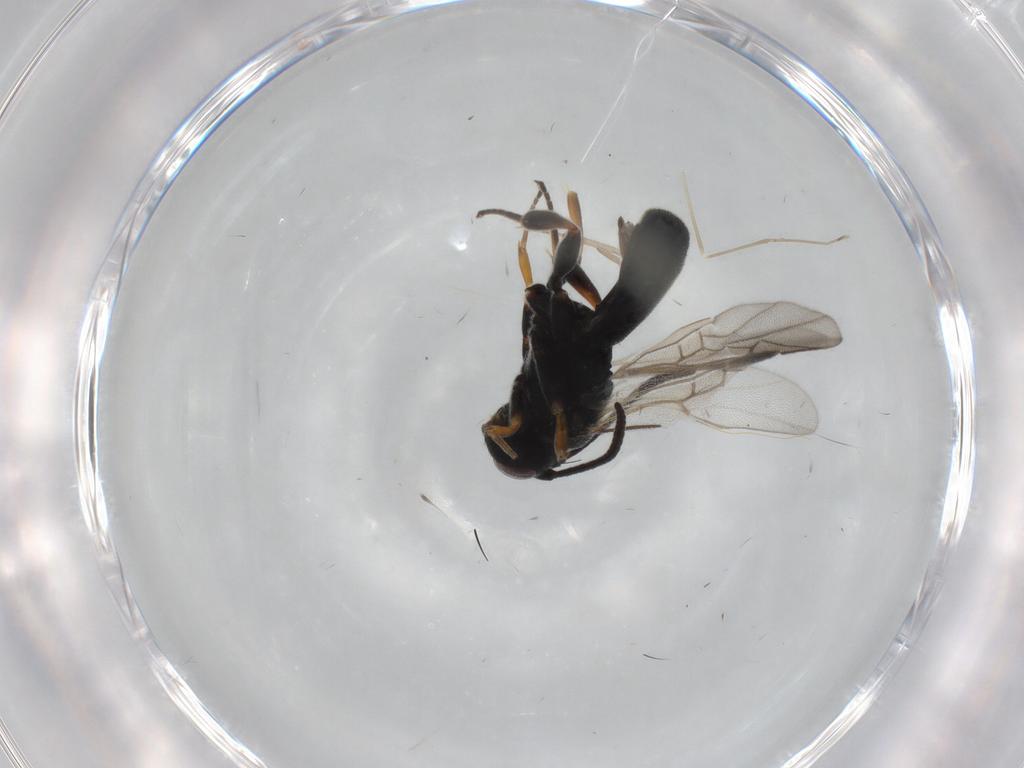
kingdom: Animalia
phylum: Arthropoda
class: Insecta
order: Hymenoptera
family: Braconidae
